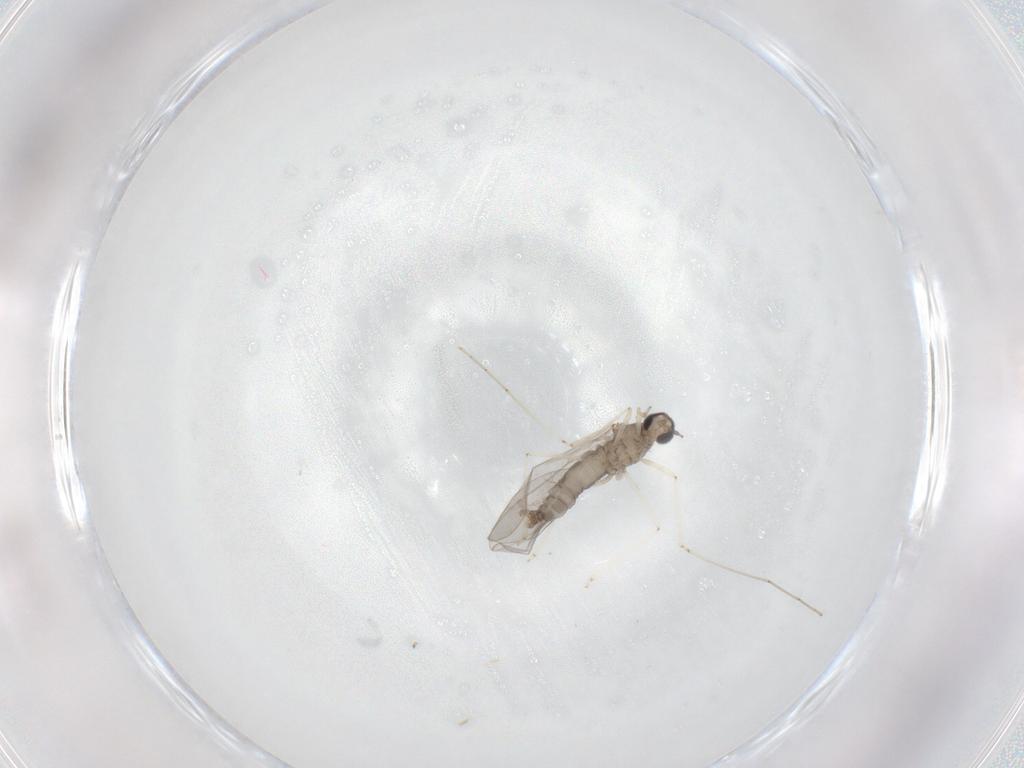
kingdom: Animalia
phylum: Arthropoda
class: Insecta
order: Diptera
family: Cecidomyiidae
